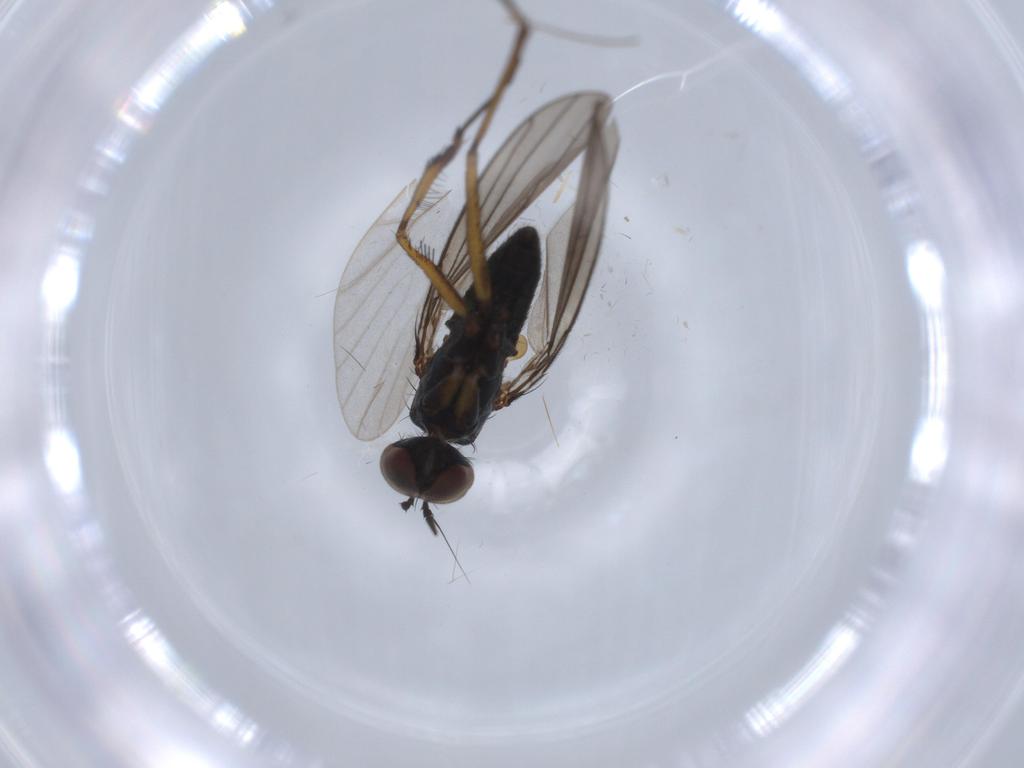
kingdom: Animalia
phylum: Arthropoda
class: Insecta
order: Diptera
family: Dolichopodidae
